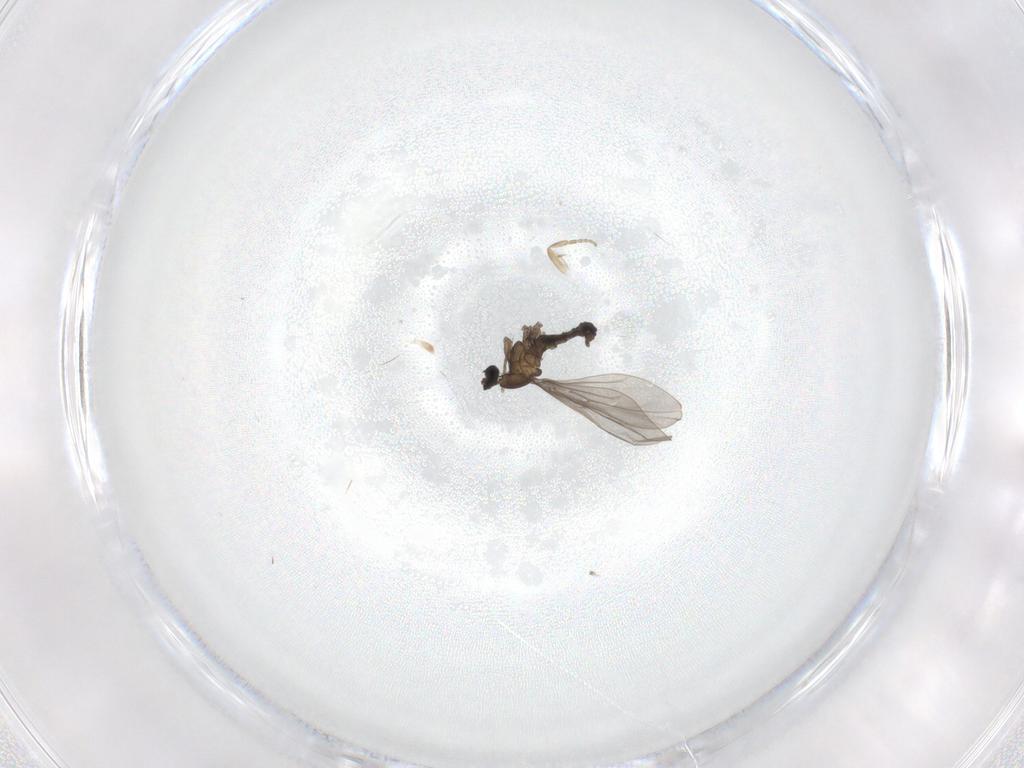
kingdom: Animalia
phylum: Arthropoda
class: Insecta
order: Diptera
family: Phoridae
